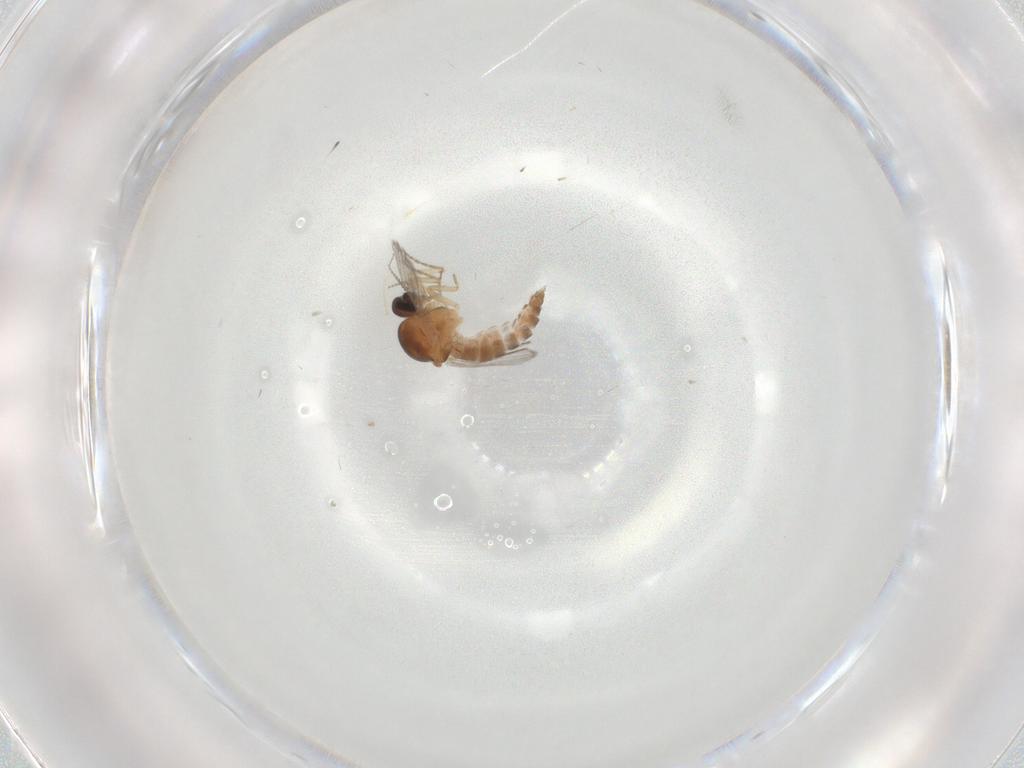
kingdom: Animalia
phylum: Arthropoda
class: Insecta
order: Diptera
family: Ceratopogonidae
